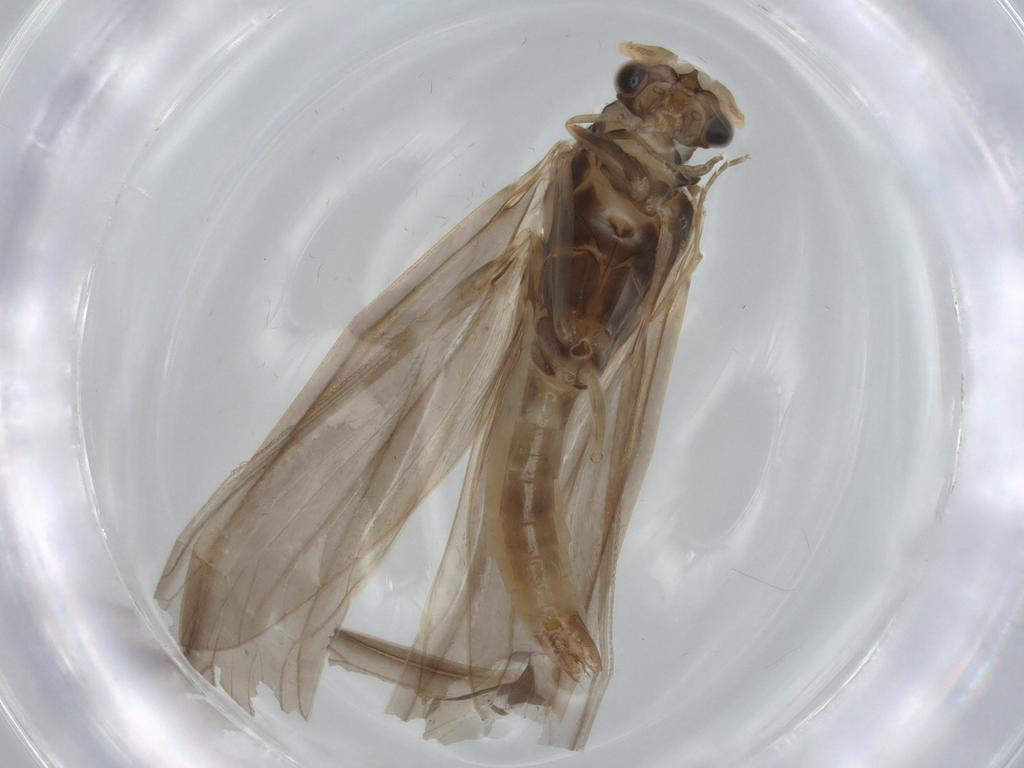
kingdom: Animalia
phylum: Arthropoda
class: Insecta
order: Trichoptera
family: Leptoceridae
